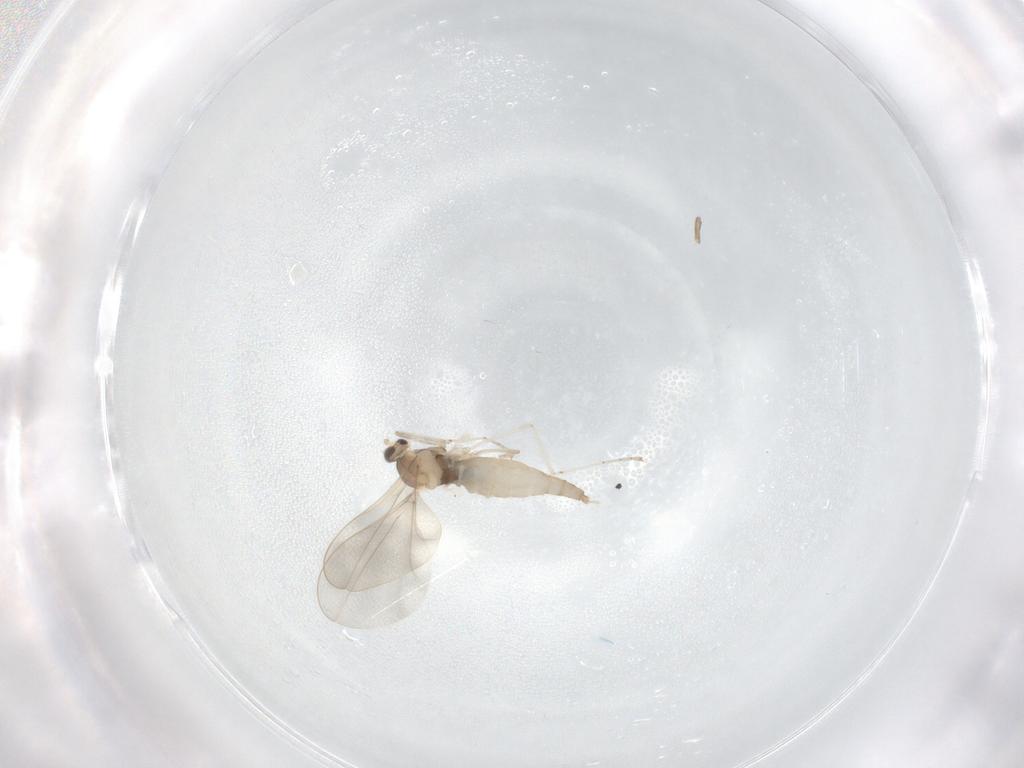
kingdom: Animalia
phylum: Arthropoda
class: Insecta
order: Diptera
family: Cecidomyiidae
